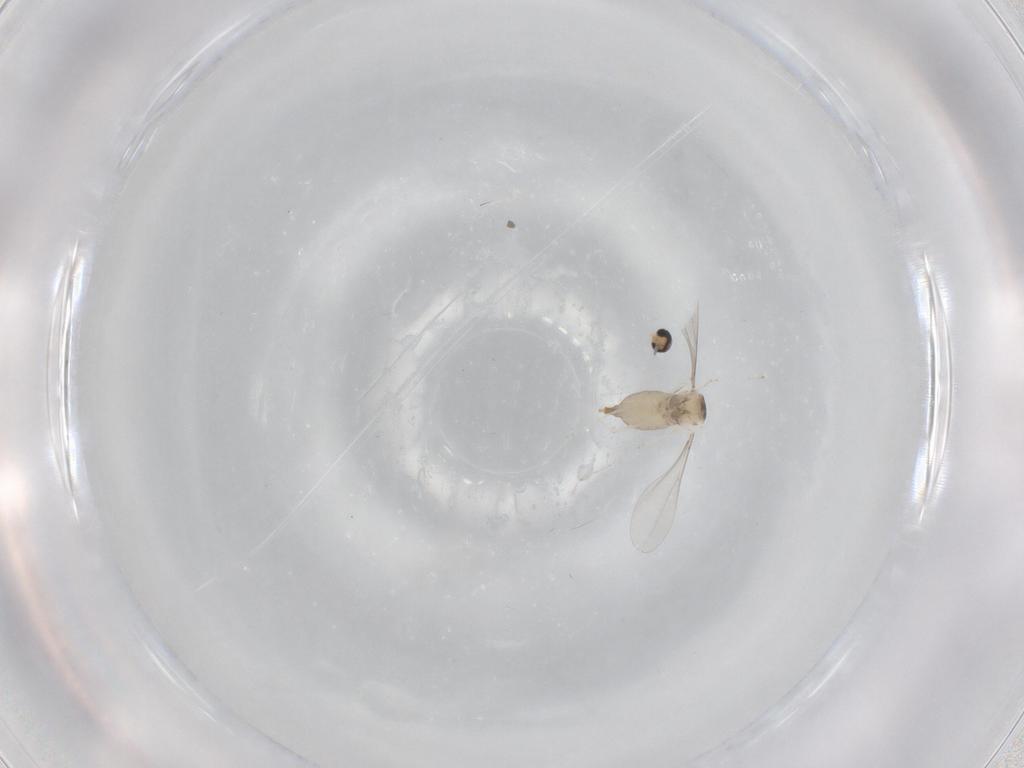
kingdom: Animalia
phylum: Arthropoda
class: Insecta
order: Diptera
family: Cecidomyiidae
